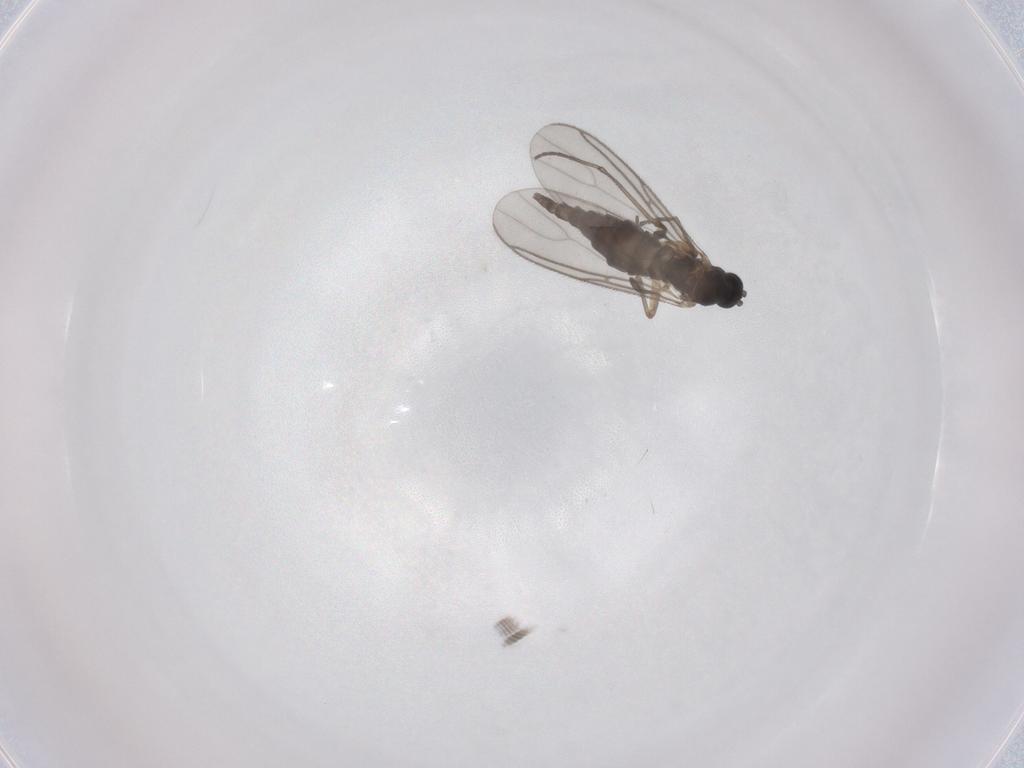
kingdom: Animalia
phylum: Arthropoda
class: Insecta
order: Diptera
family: Sciaridae
